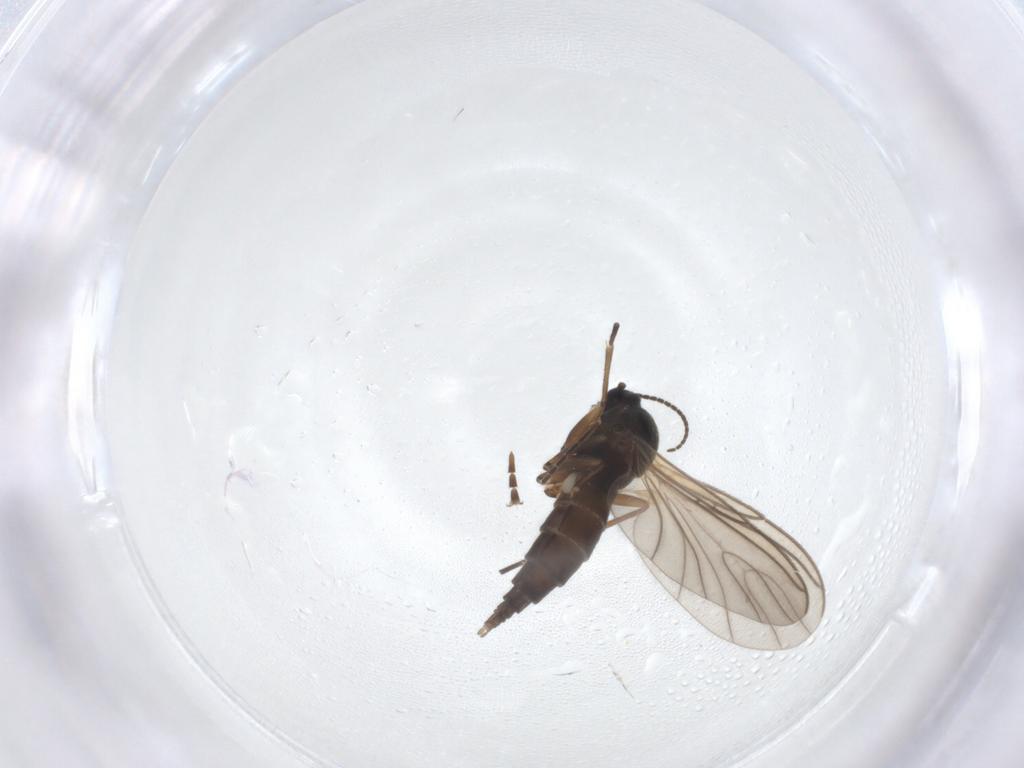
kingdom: Animalia
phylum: Arthropoda
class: Insecta
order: Diptera
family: Sciaridae
